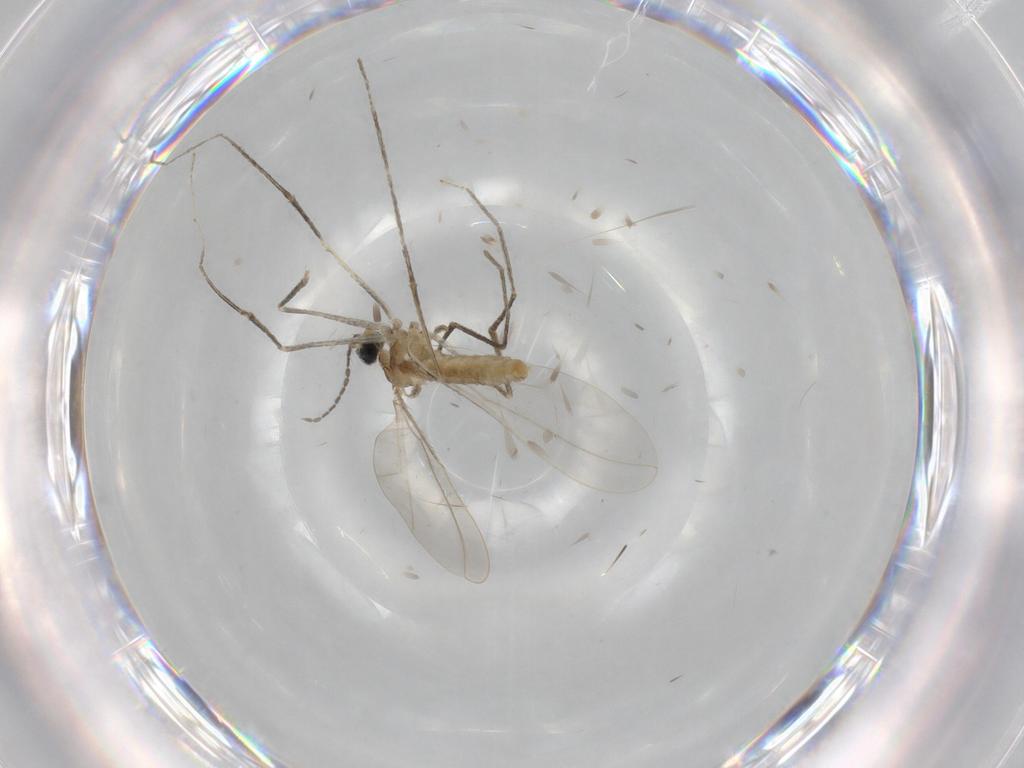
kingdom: Animalia
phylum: Arthropoda
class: Insecta
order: Diptera
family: Cecidomyiidae
